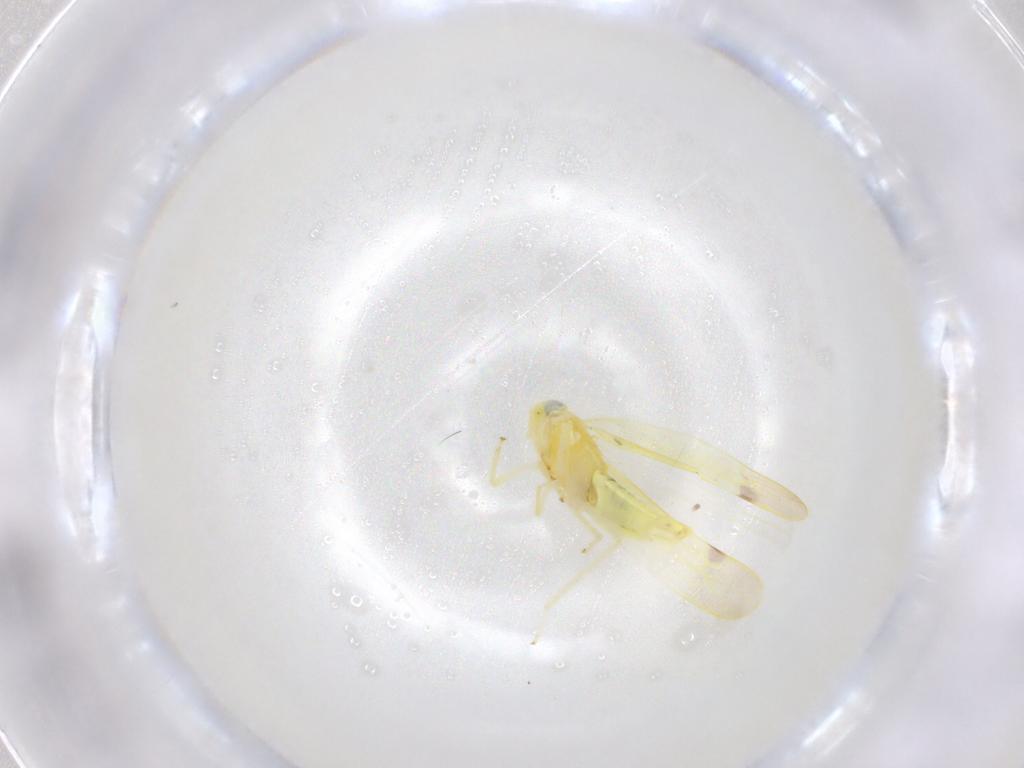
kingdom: Animalia
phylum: Arthropoda
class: Insecta
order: Hemiptera
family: Cicadellidae
